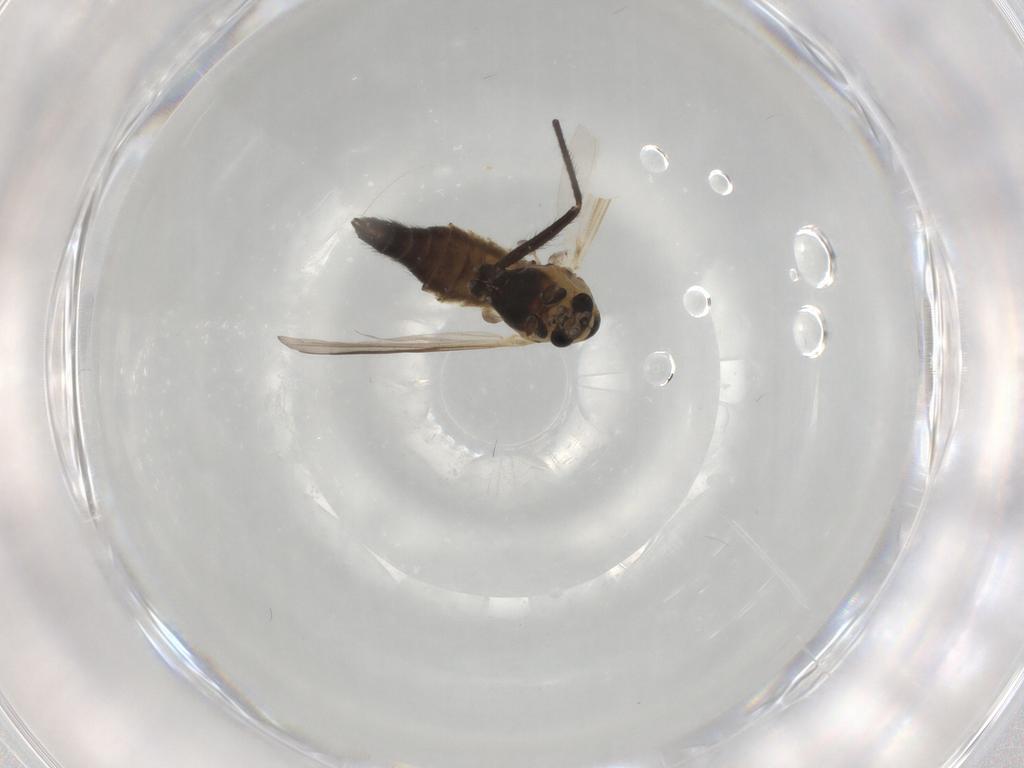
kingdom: Animalia
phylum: Arthropoda
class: Insecta
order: Diptera
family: Chironomidae
